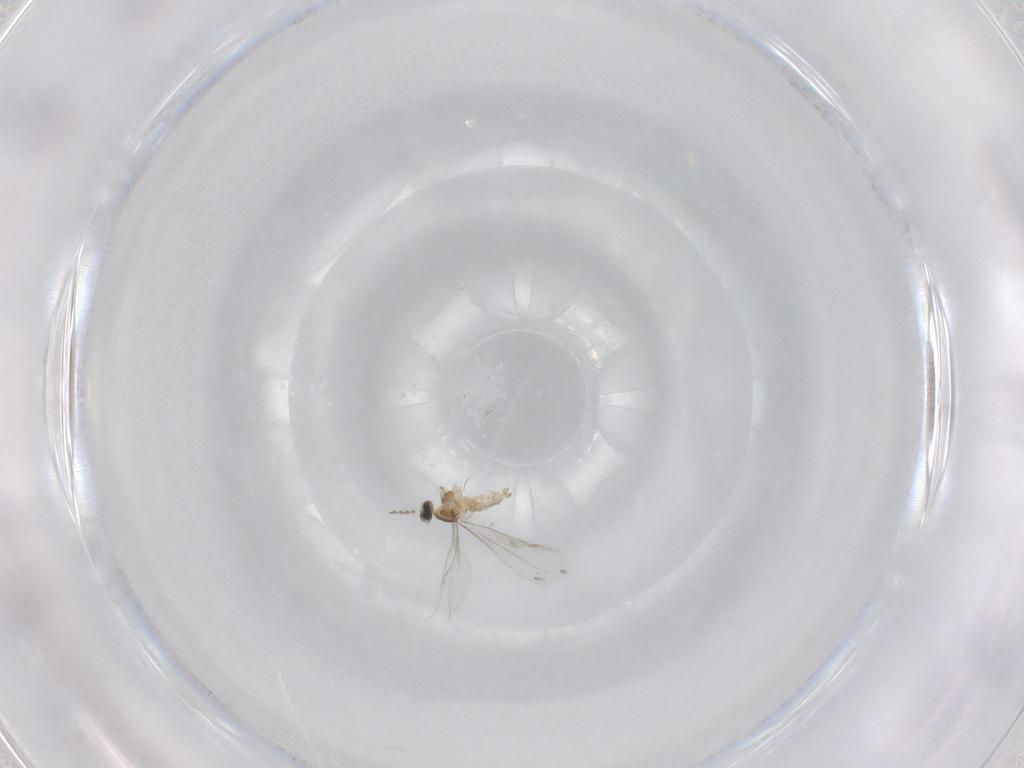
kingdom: Animalia
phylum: Arthropoda
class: Insecta
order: Diptera
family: Cecidomyiidae
